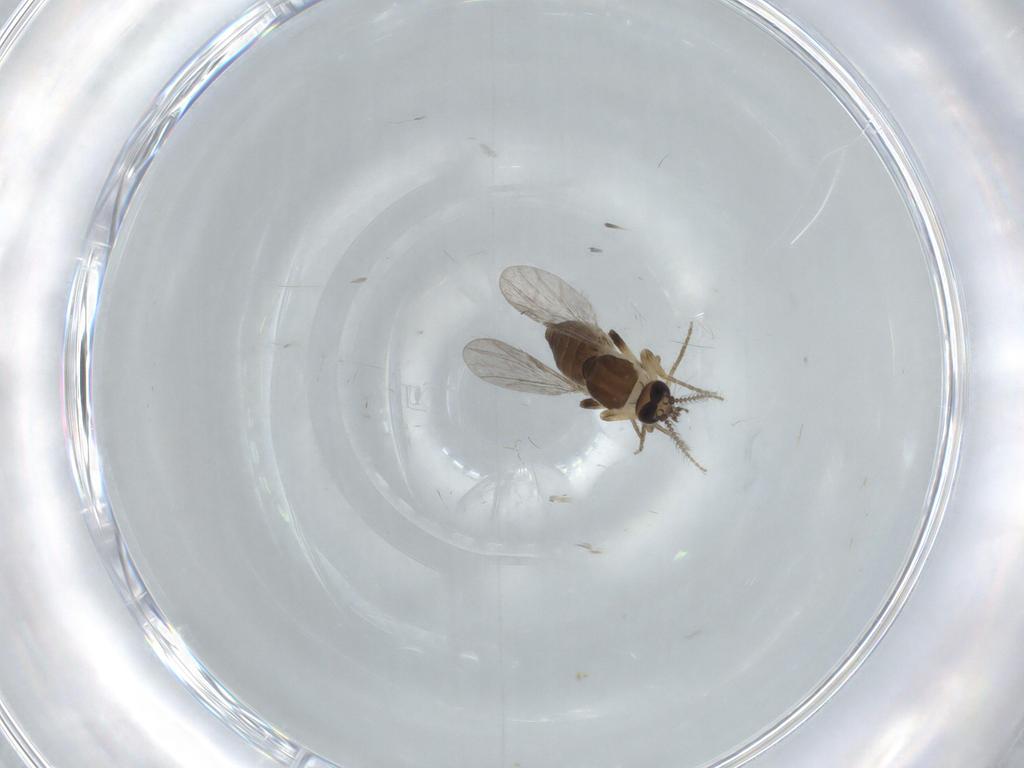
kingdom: Animalia
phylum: Arthropoda
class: Insecta
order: Diptera
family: Ceratopogonidae
